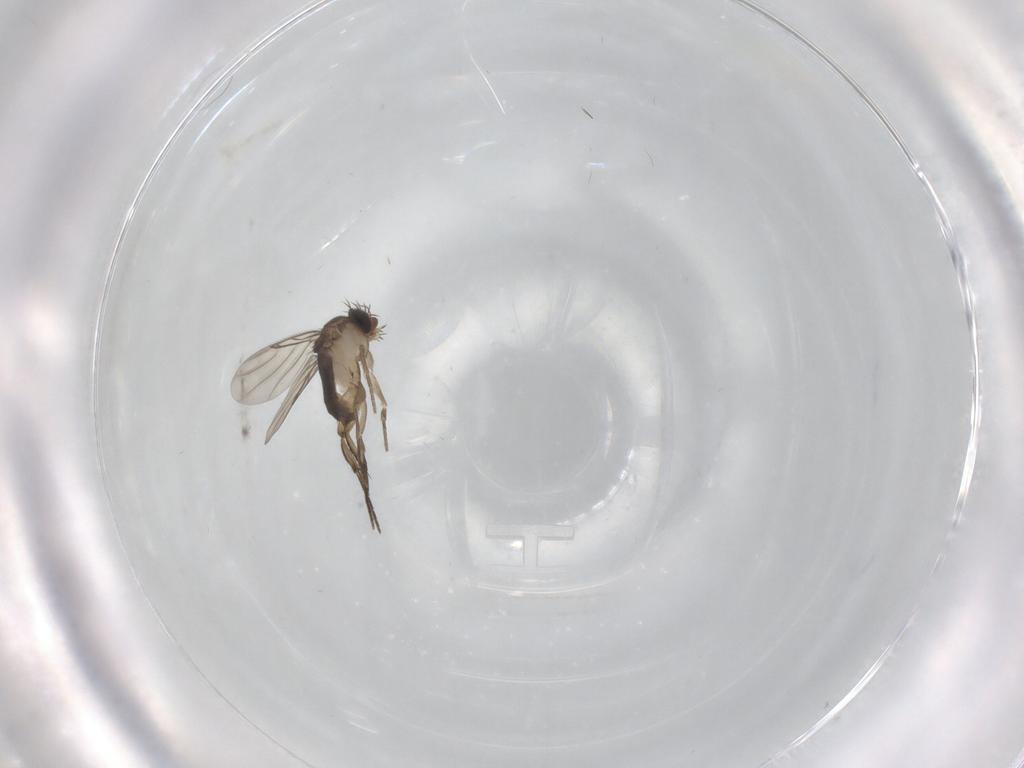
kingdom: Animalia
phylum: Arthropoda
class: Insecta
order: Diptera
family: Phoridae
